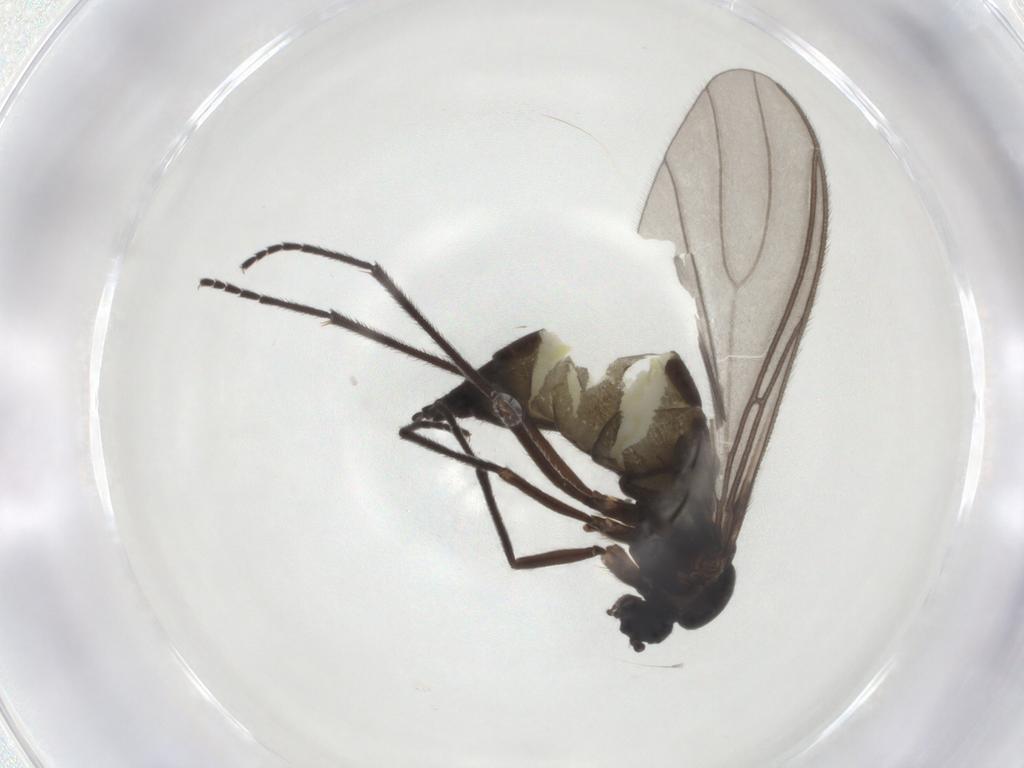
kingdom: Animalia
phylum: Arthropoda
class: Insecta
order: Diptera
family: Sciaridae
